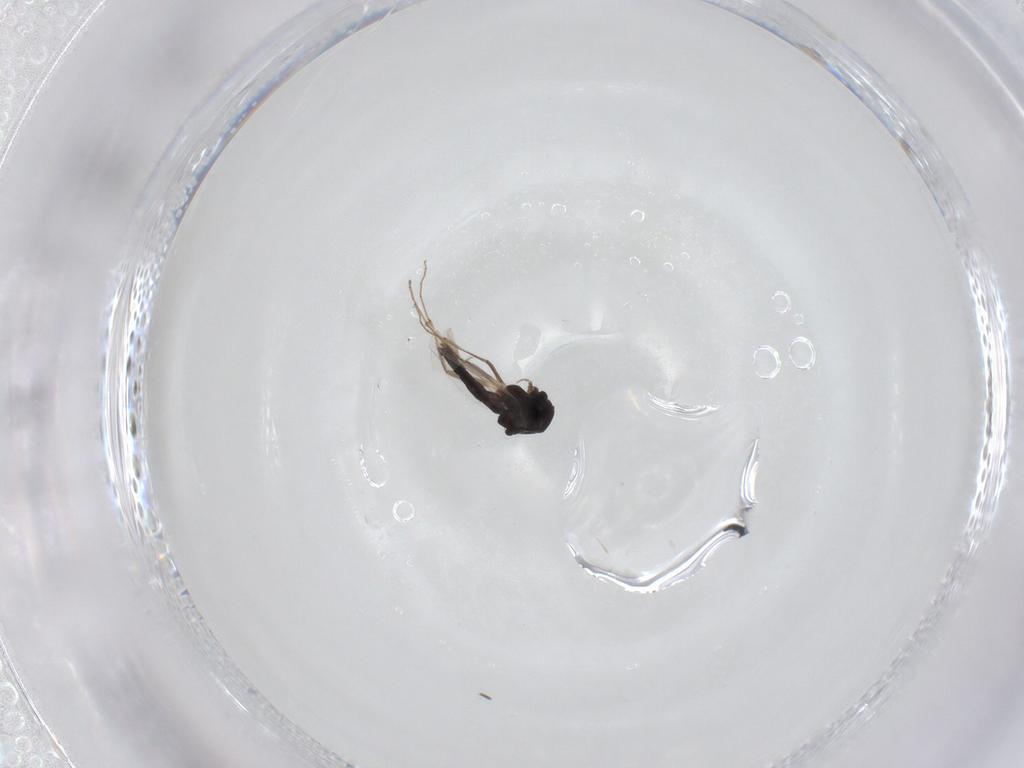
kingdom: Animalia
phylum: Arthropoda
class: Insecta
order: Diptera
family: Chironomidae
